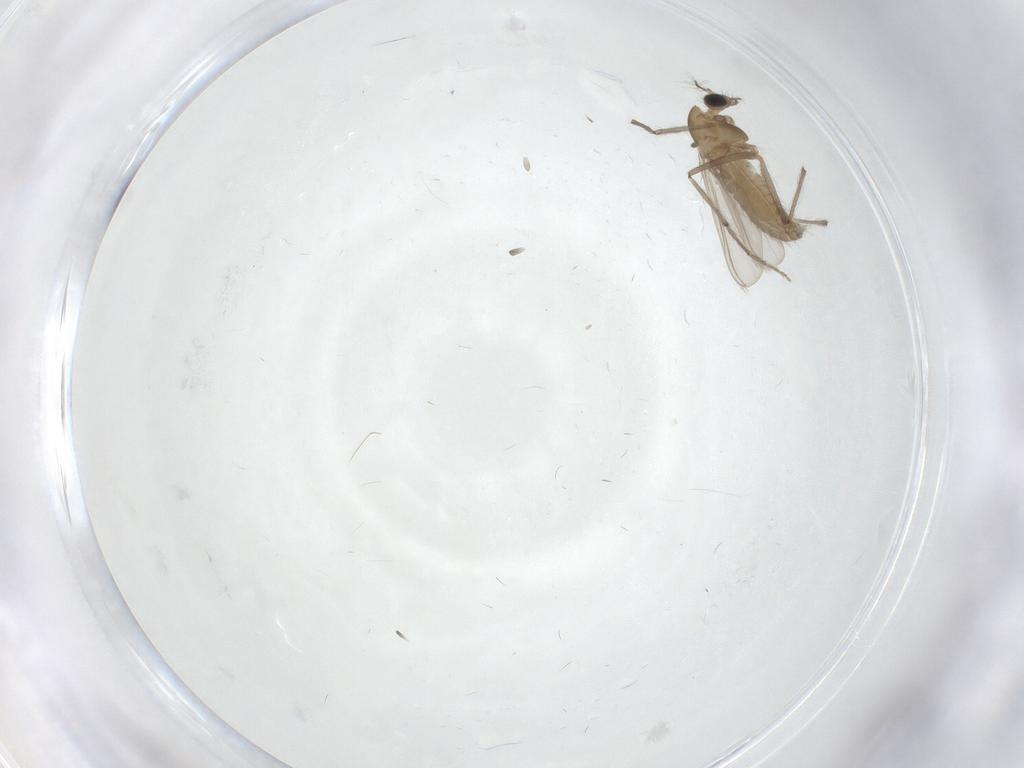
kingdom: Animalia
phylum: Arthropoda
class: Insecta
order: Diptera
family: Chironomidae
